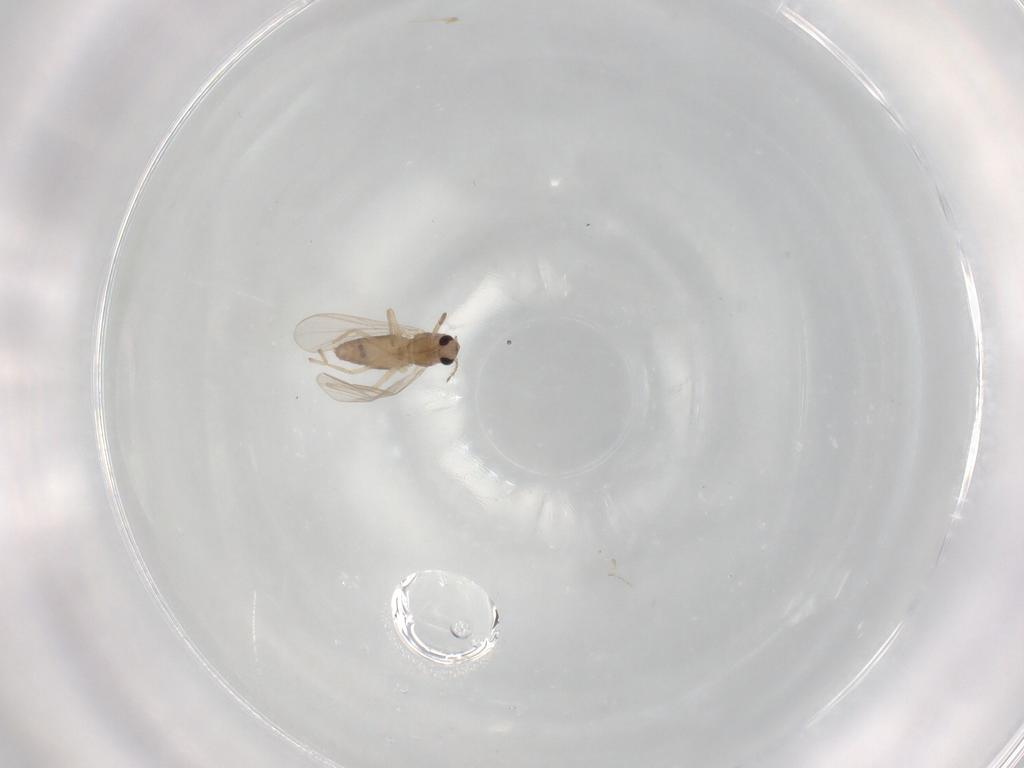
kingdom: Animalia
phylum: Arthropoda
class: Insecta
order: Diptera
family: Chironomidae
